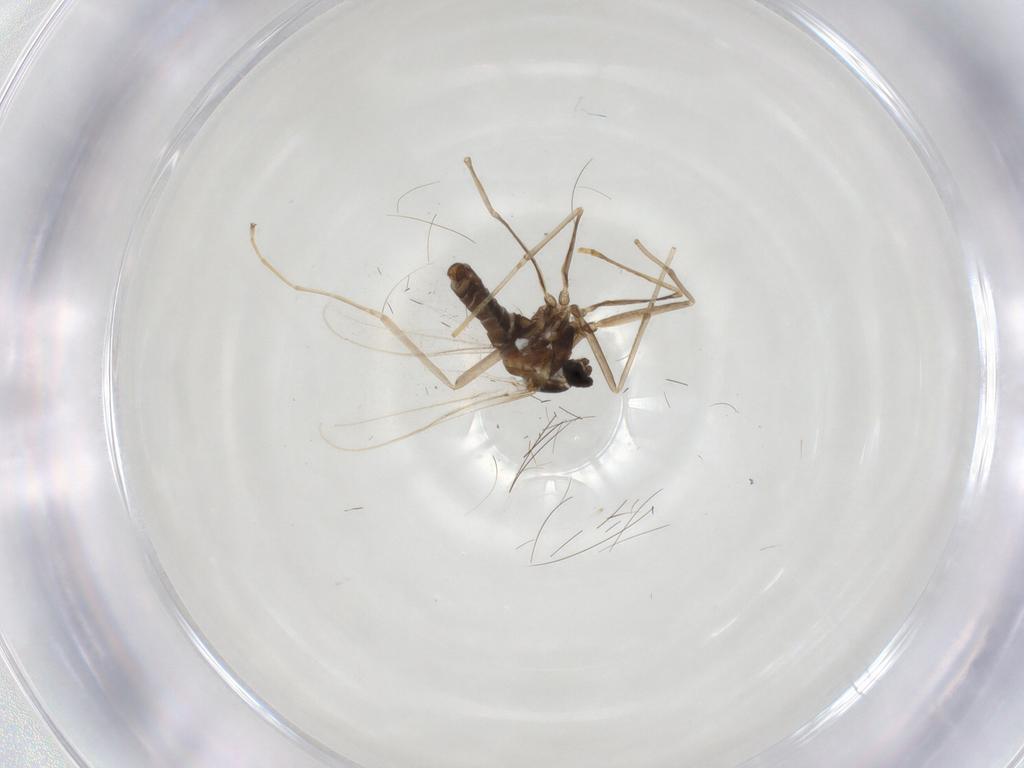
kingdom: Animalia
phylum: Arthropoda
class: Insecta
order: Diptera
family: Cecidomyiidae
